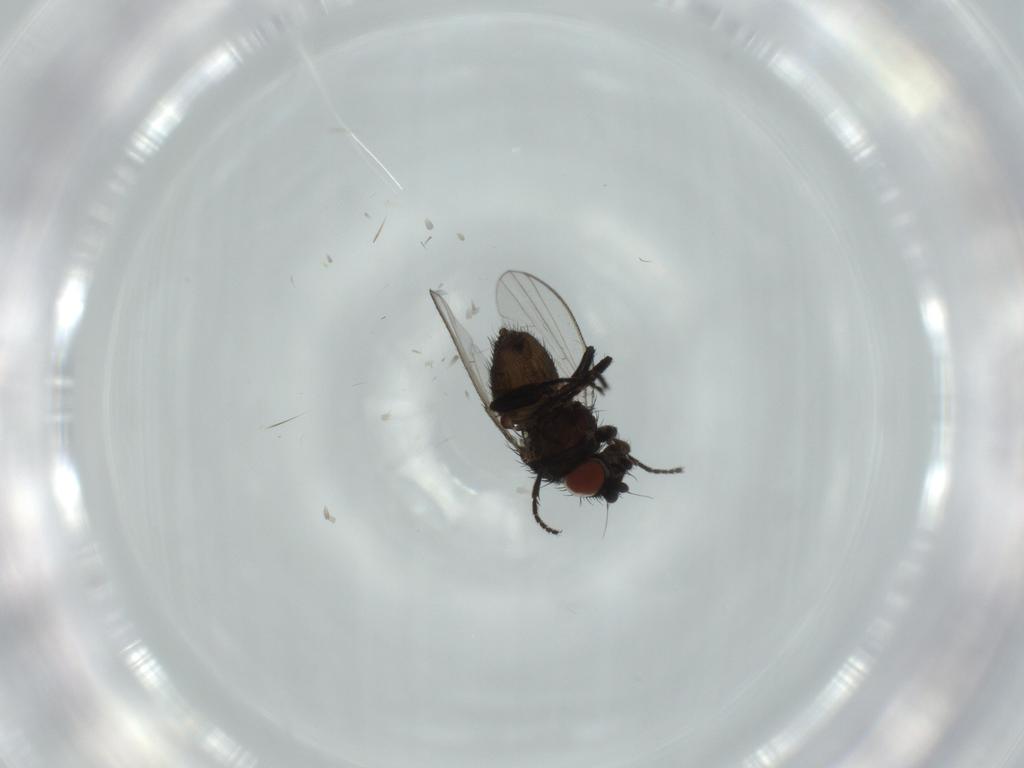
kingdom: Animalia
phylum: Arthropoda
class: Insecta
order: Diptera
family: Milichiidae
